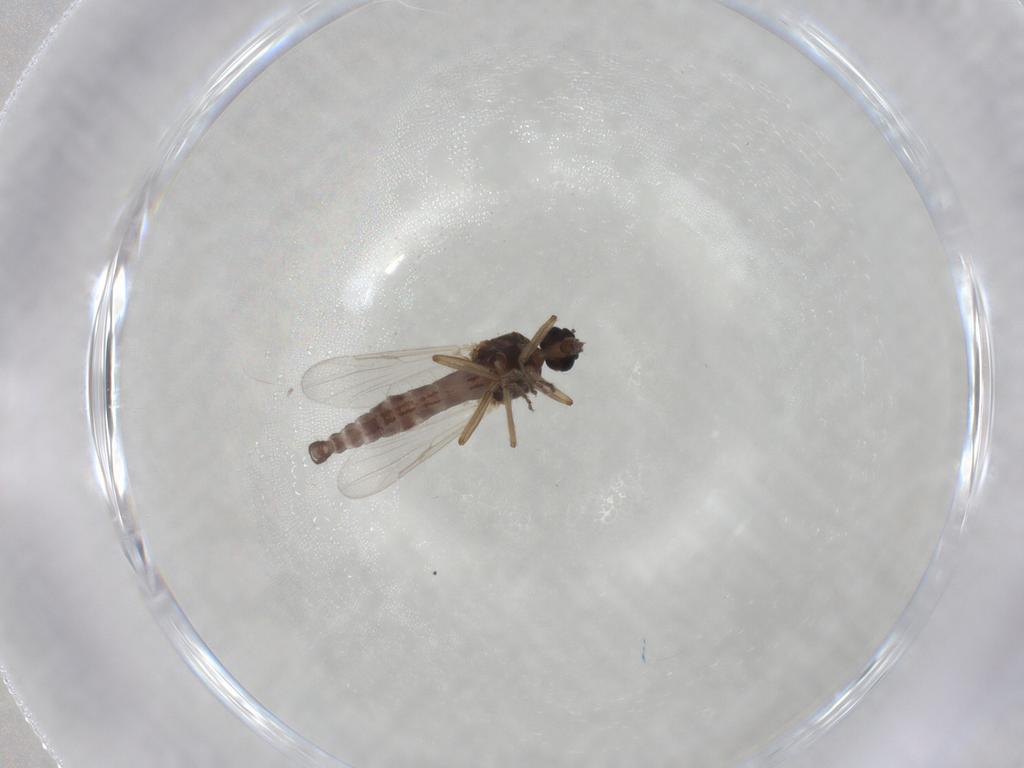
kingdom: Animalia
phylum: Arthropoda
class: Insecta
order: Diptera
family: Ceratopogonidae
